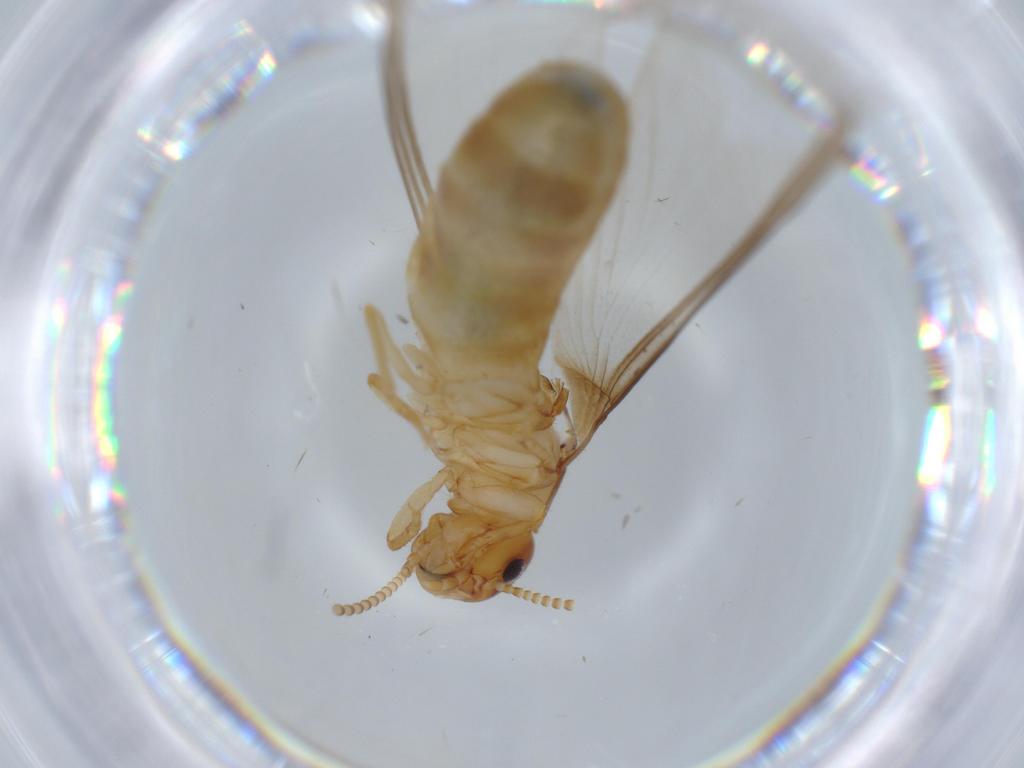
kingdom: Animalia
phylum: Arthropoda
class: Insecta
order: Blattodea
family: Kalotermitidae
